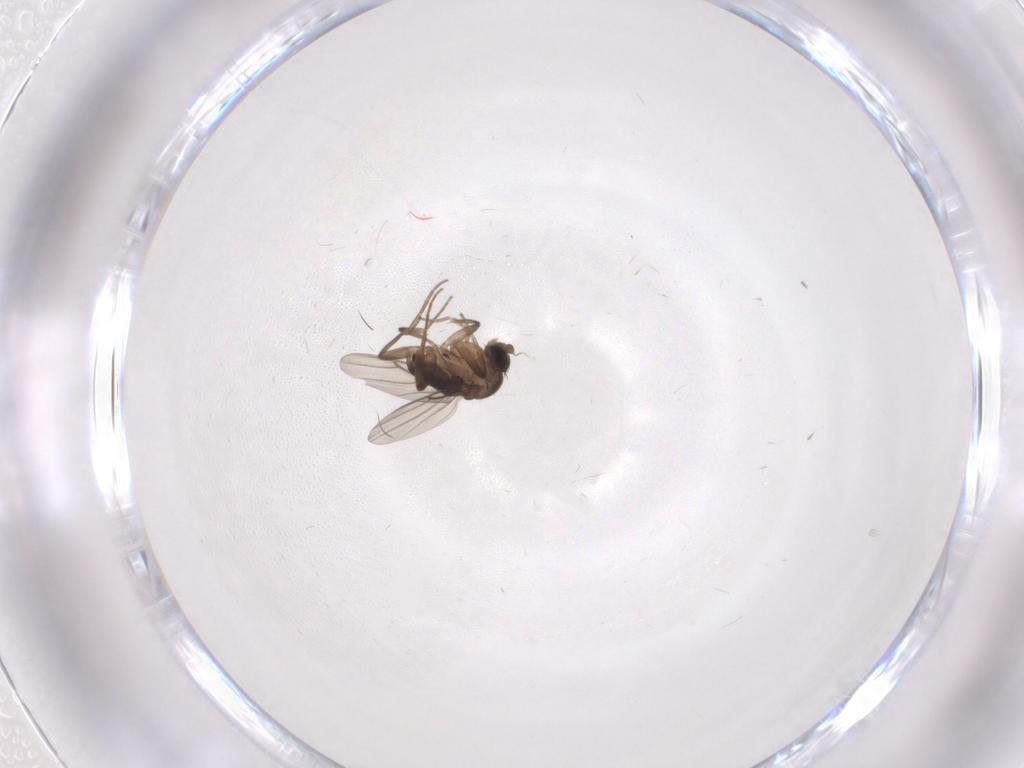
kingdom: Animalia
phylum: Arthropoda
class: Insecta
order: Diptera
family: Phoridae
